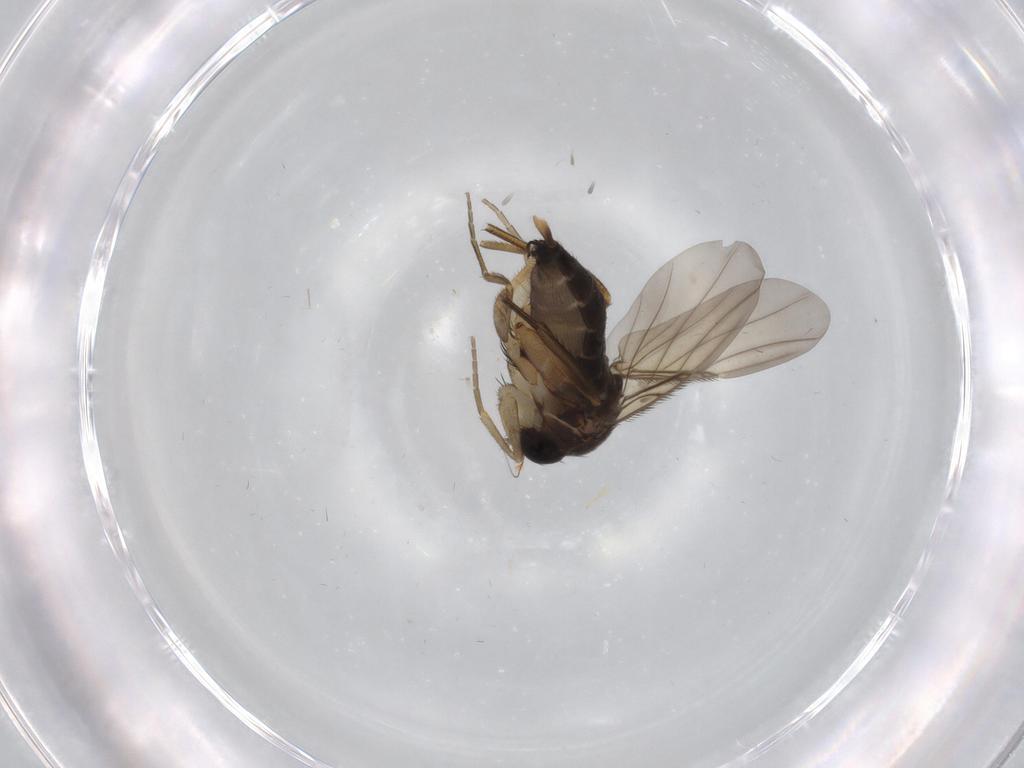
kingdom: Animalia
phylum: Arthropoda
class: Insecta
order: Diptera
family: Phoridae
